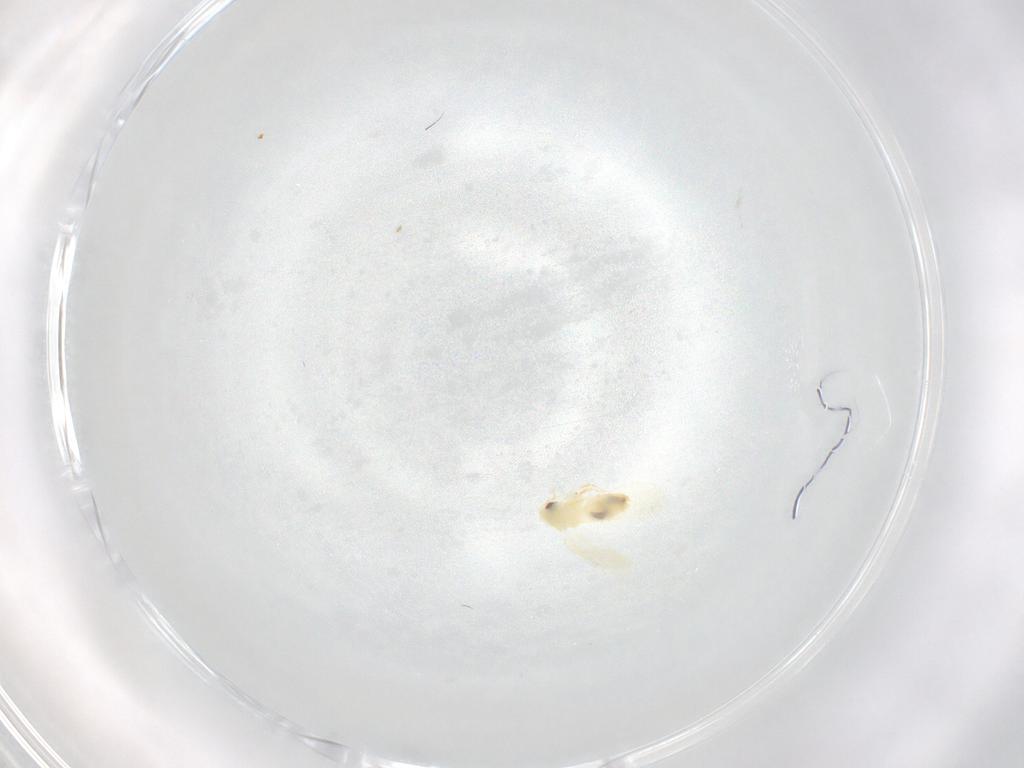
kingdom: Animalia
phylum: Arthropoda
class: Insecta
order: Hemiptera
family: Aleyrodidae
